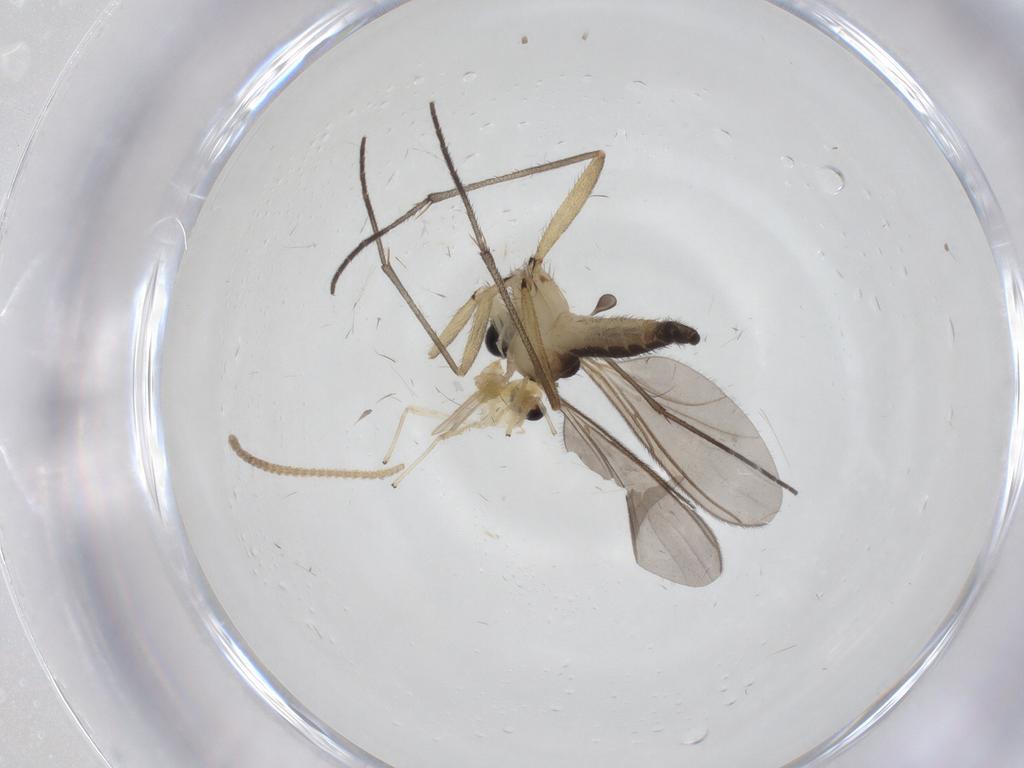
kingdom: Animalia
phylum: Arthropoda
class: Insecta
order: Diptera
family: Sciaridae
